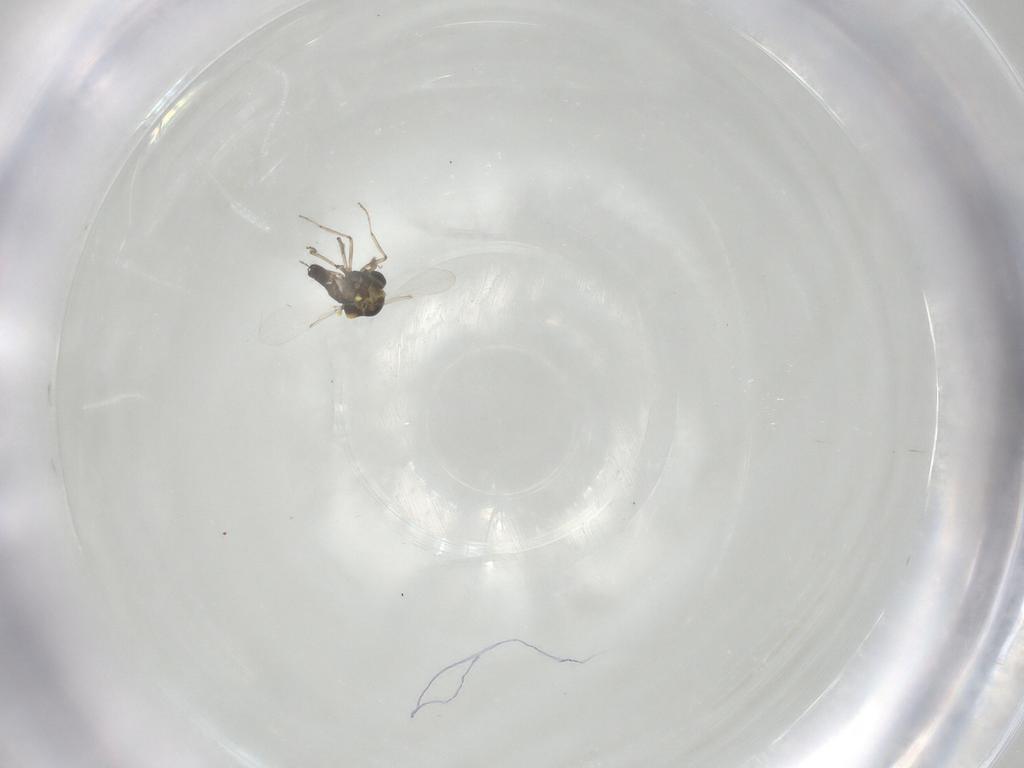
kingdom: Animalia
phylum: Arthropoda
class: Insecta
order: Diptera
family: Ceratopogonidae
